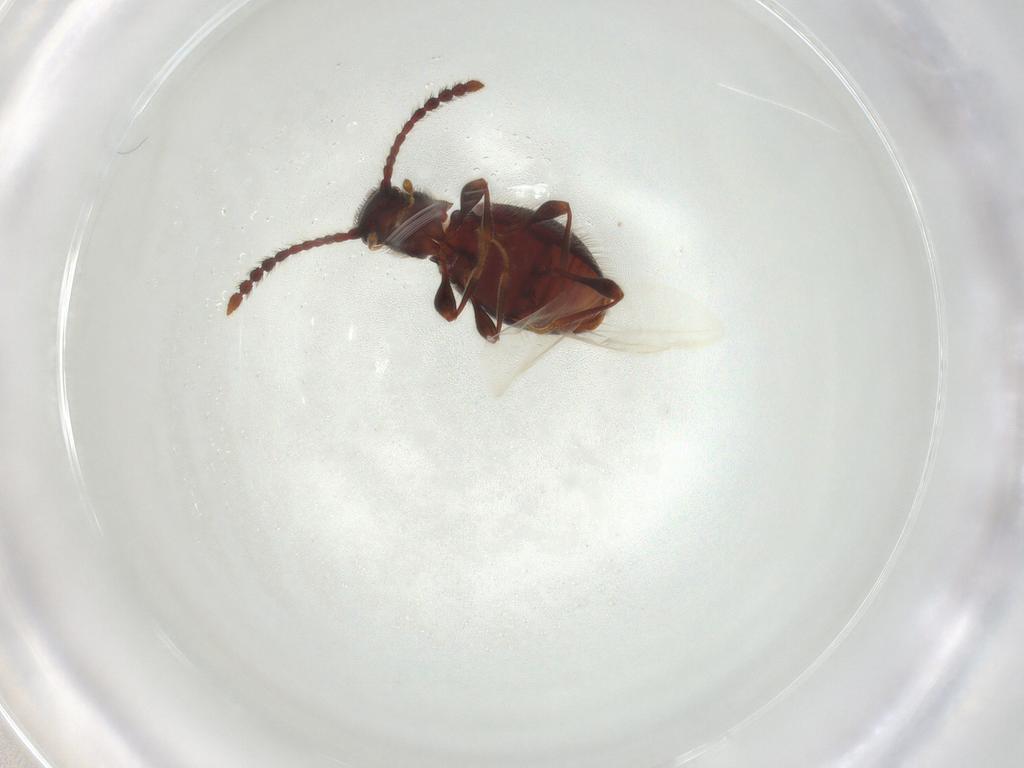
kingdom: Animalia
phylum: Arthropoda
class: Insecta
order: Coleoptera
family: Staphylinidae
